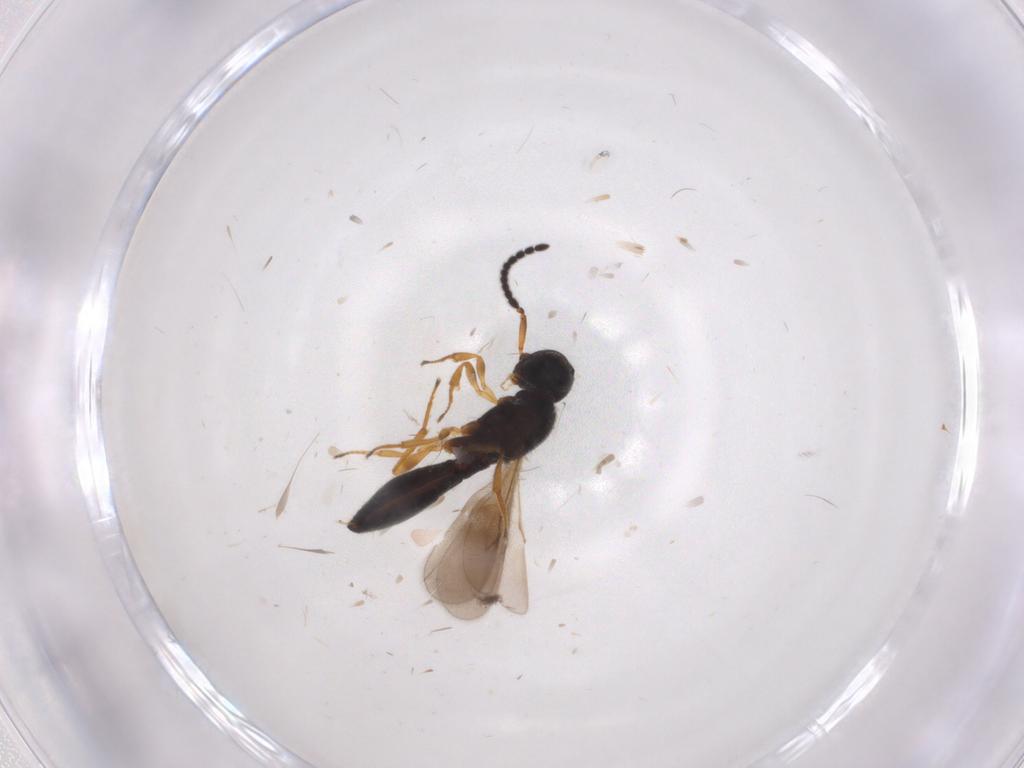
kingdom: Animalia
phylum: Arthropoda
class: Insecta
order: Hymenoptera
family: Scelionidae
